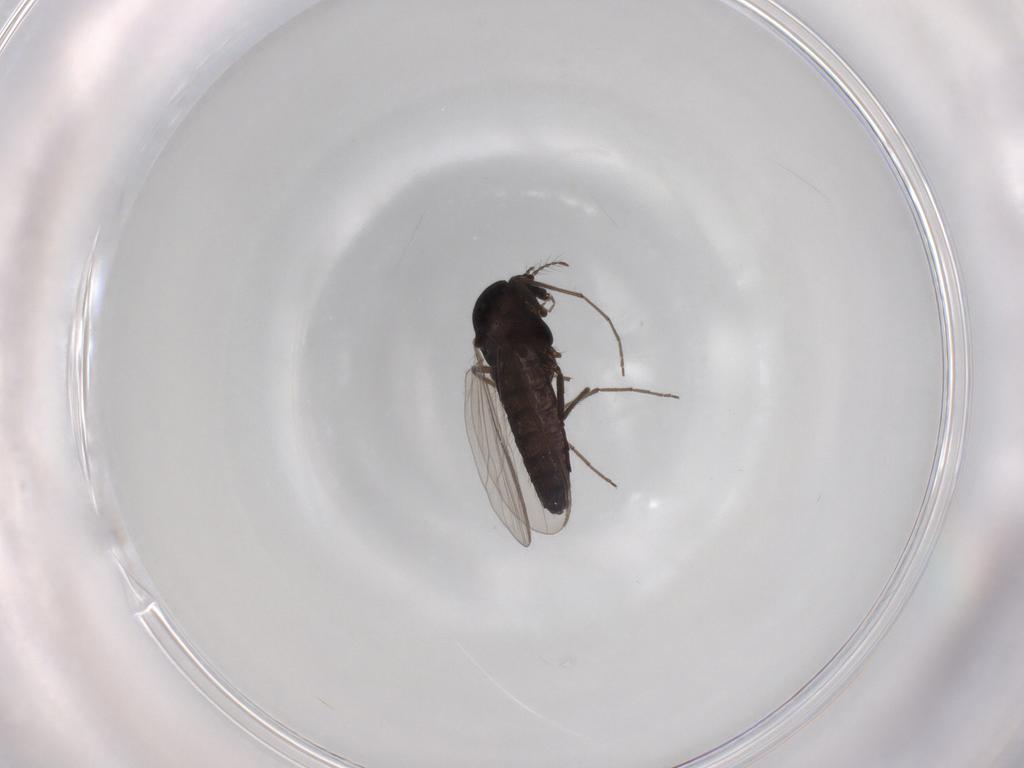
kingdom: Animalia
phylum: Arthropoda
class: Insecta
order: Diptera
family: Chironomidae
